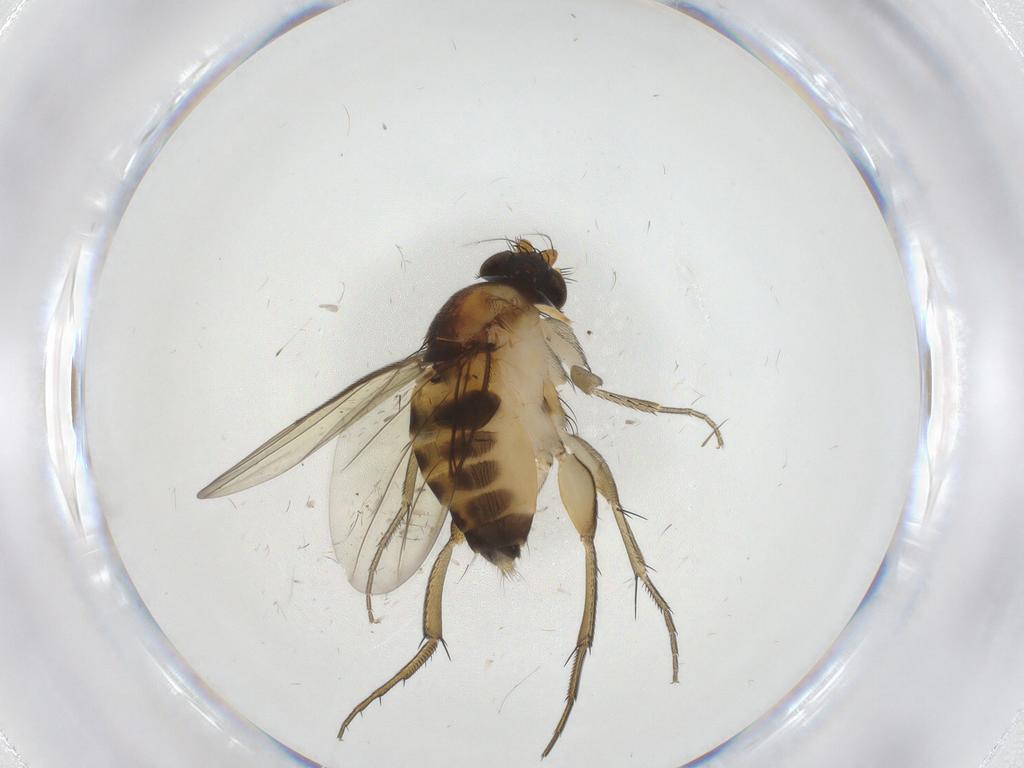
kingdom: Animalia
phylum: Arthropoda
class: Insecta
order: Diptera
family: Phoridae
